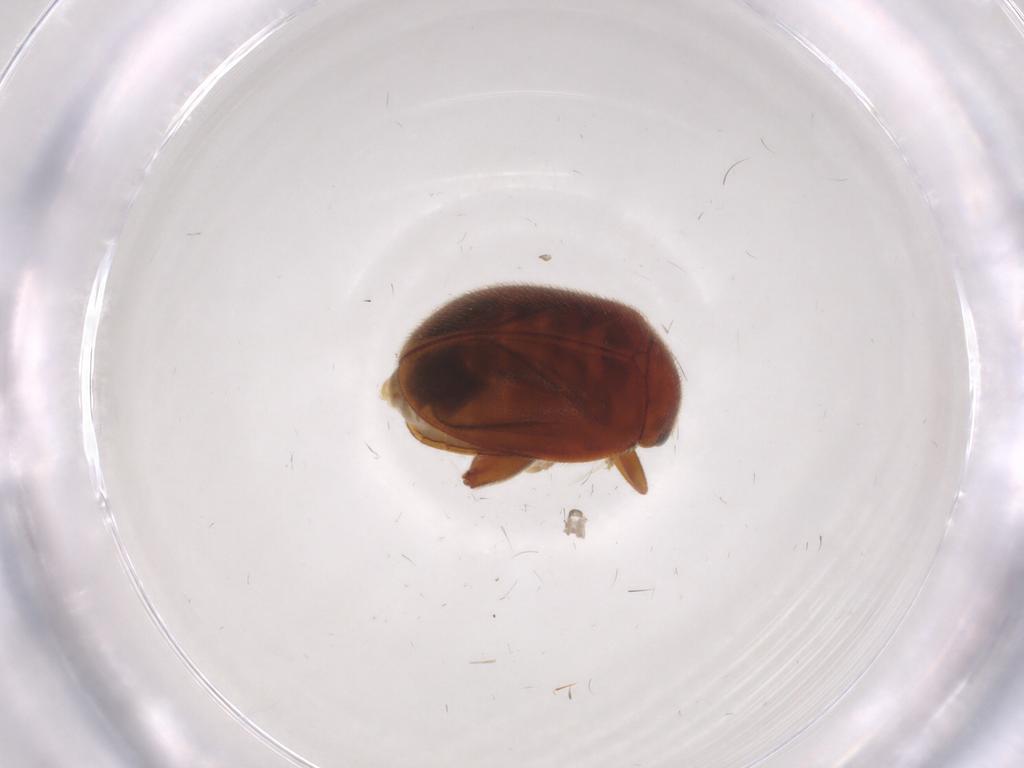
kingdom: Animalia
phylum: Arthropoda
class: Insecta
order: Coleoptera
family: Scirtidae
